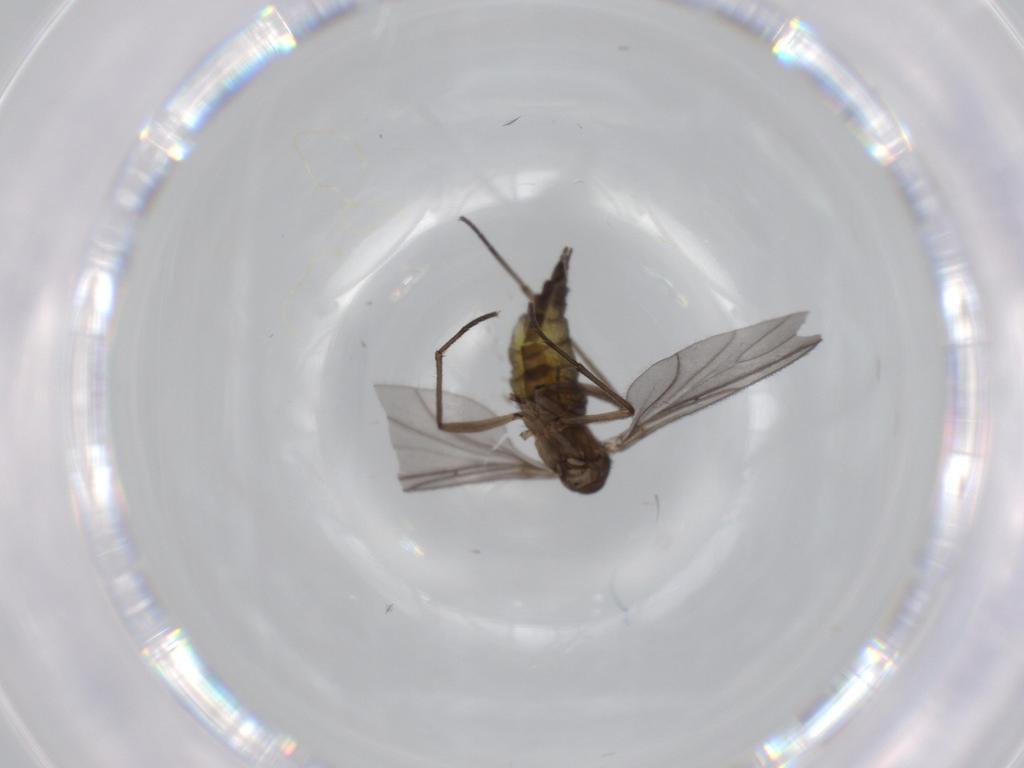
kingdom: Animalia
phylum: Arthropoda
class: Insecta
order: Diptera
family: Sciaridae
